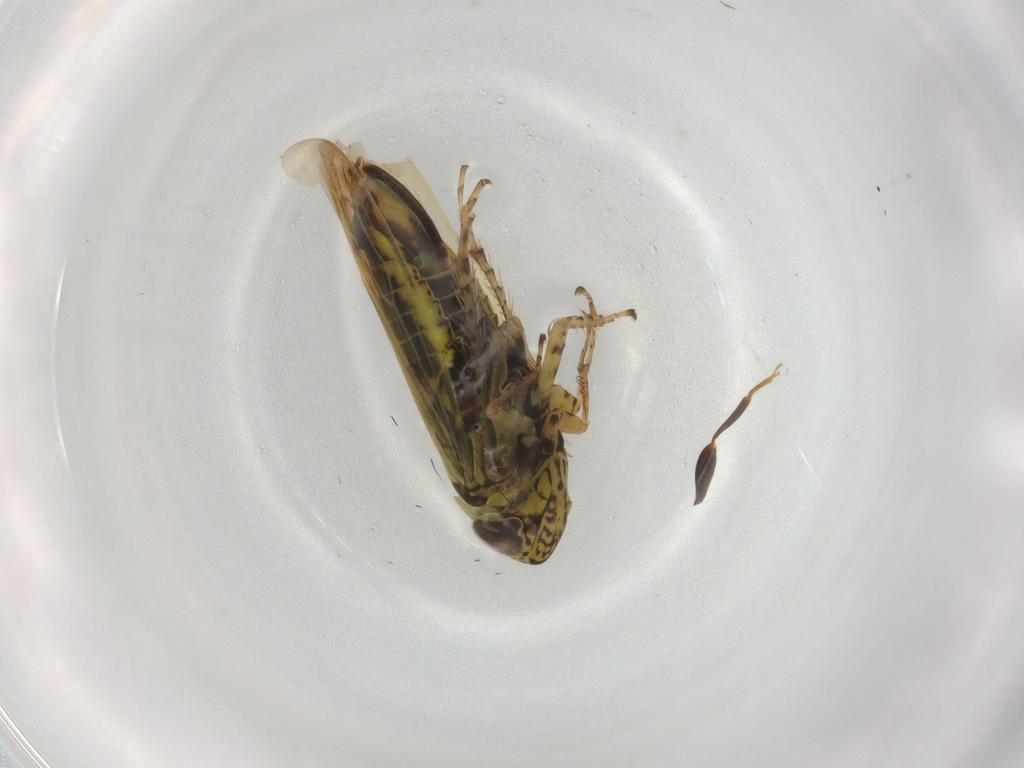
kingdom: Animalia
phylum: Arthropoda
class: Insecta
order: Hemiptera
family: Cicadellidae
